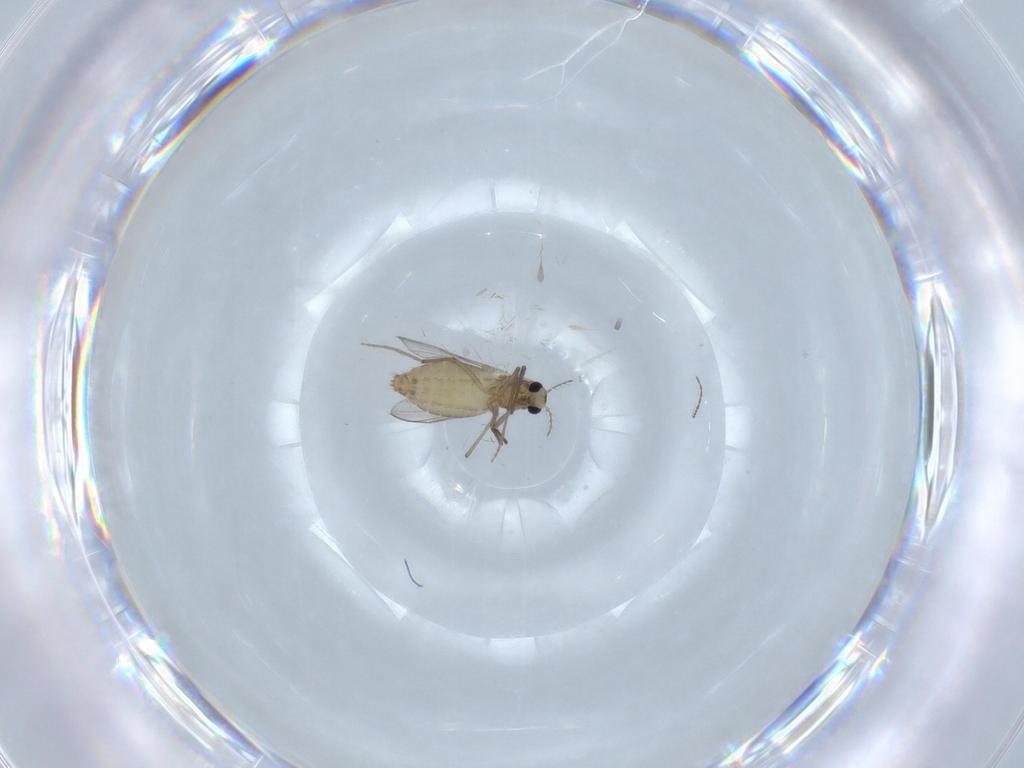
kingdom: Animalia
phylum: Arthropoda
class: Insecta
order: Diptera
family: Chironomidae
